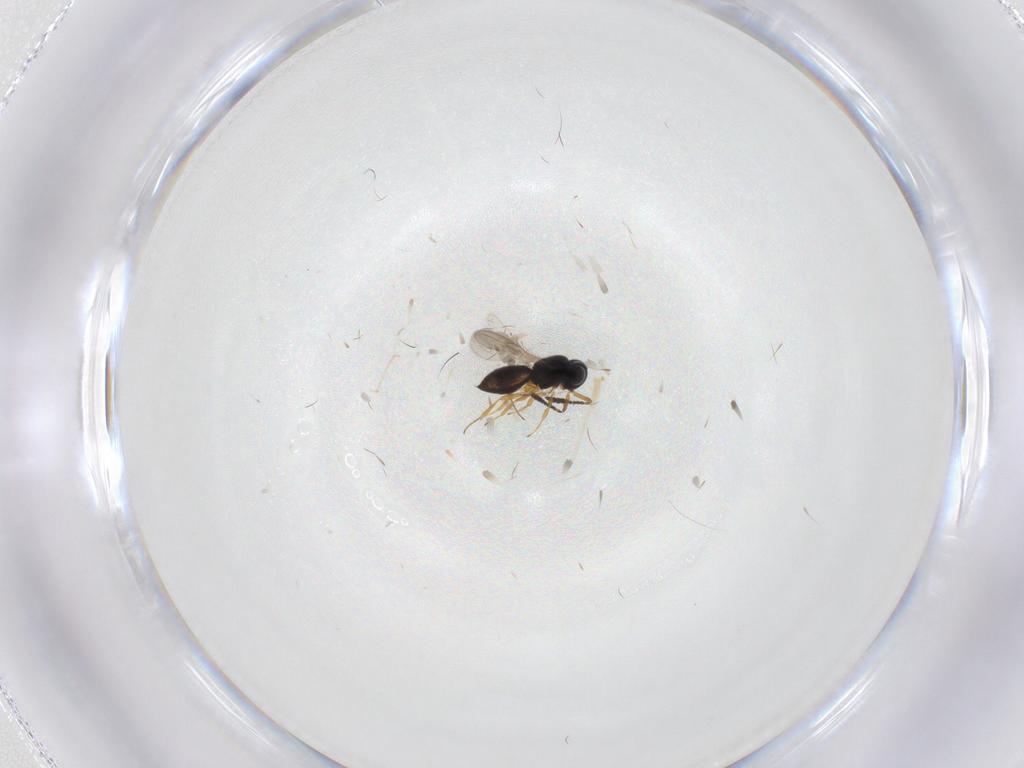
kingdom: Animalia
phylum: Arthropoda
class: Insecta
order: Hymenoptera
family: Scelionidae
